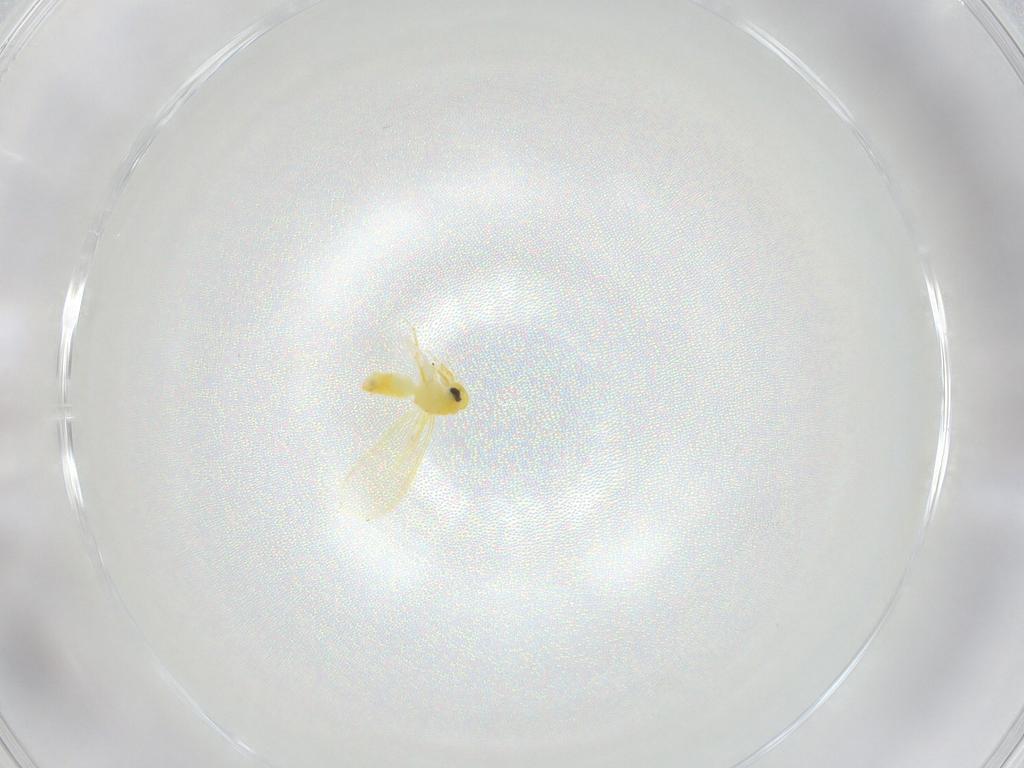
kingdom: Animalia
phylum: Arthropoda
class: Insecta
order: Hemiptera
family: Aleyrodidae
